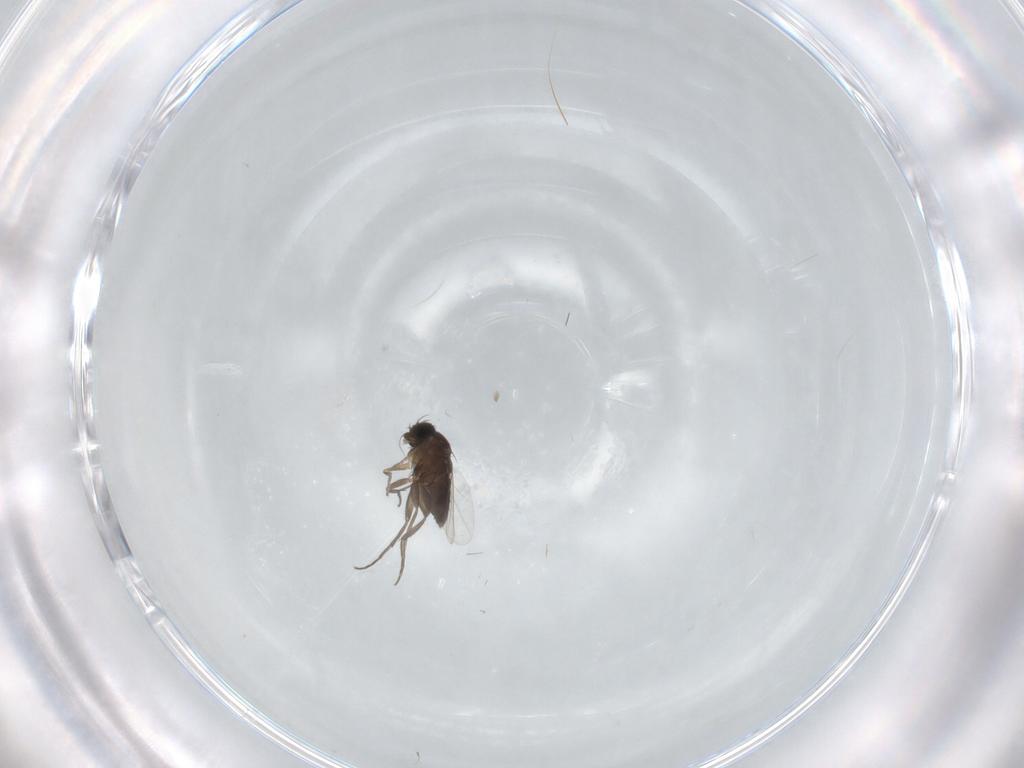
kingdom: Animalia
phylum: Arthropoda
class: Insecta
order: Diptera
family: Phoridae
